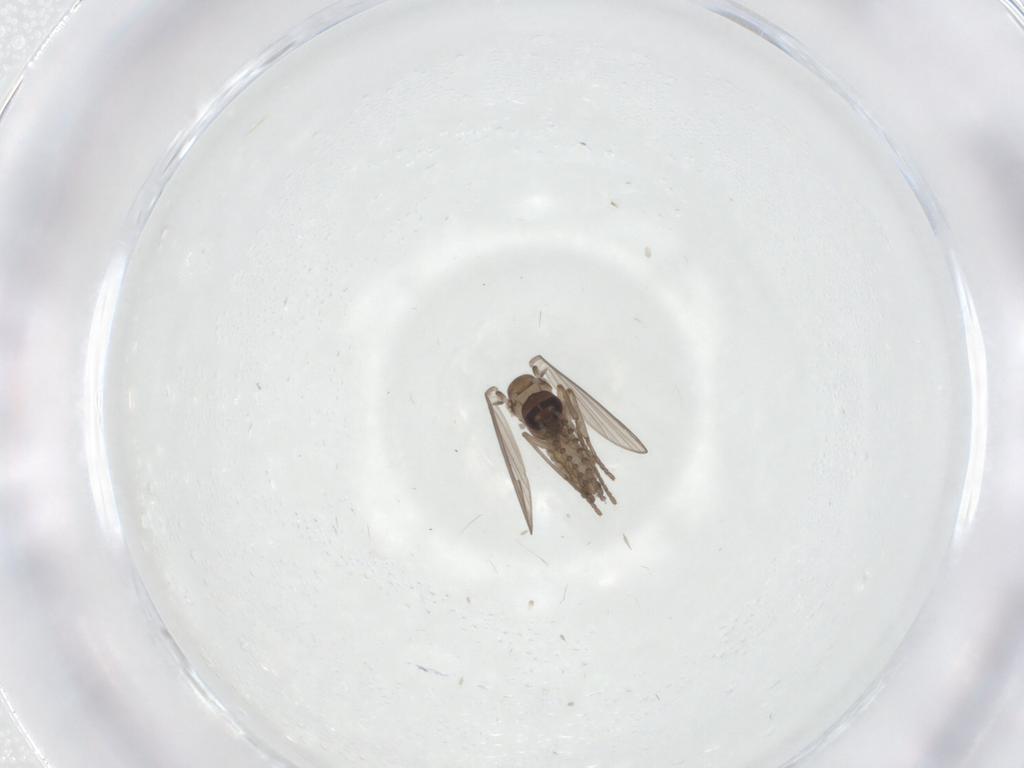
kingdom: Animalia
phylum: Arthropoda
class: Insecta
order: Diptera
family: Psychodidae
